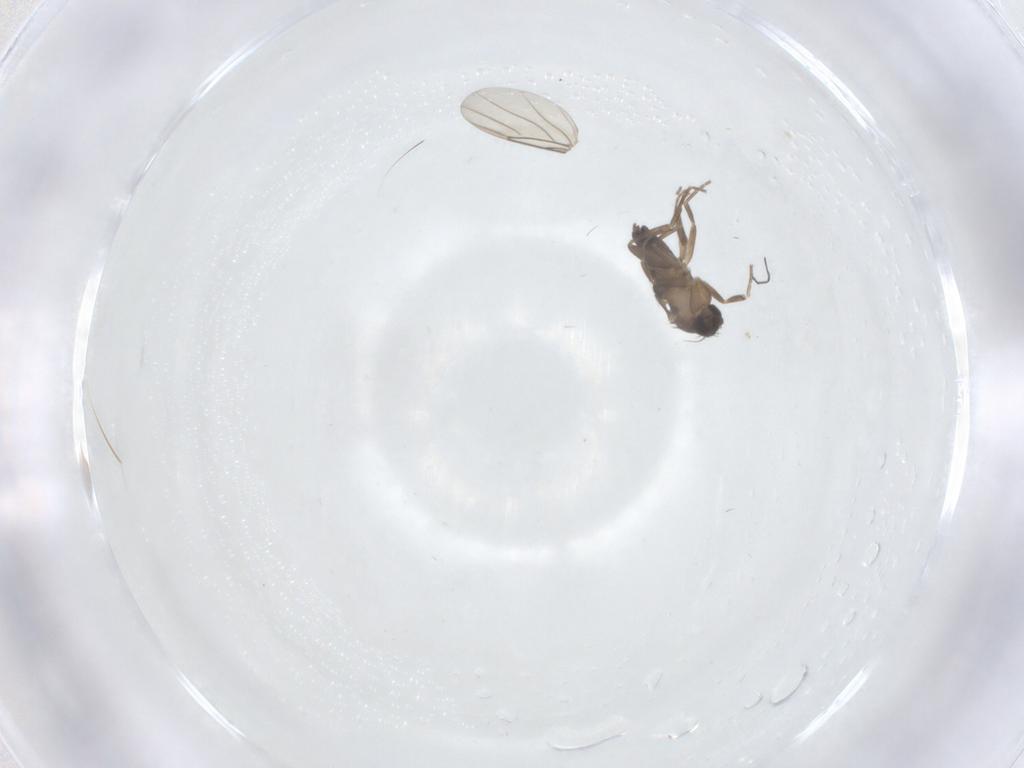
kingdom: Animalia
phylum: Arthropoda
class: Insecta
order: Diptera
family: Phoridae
